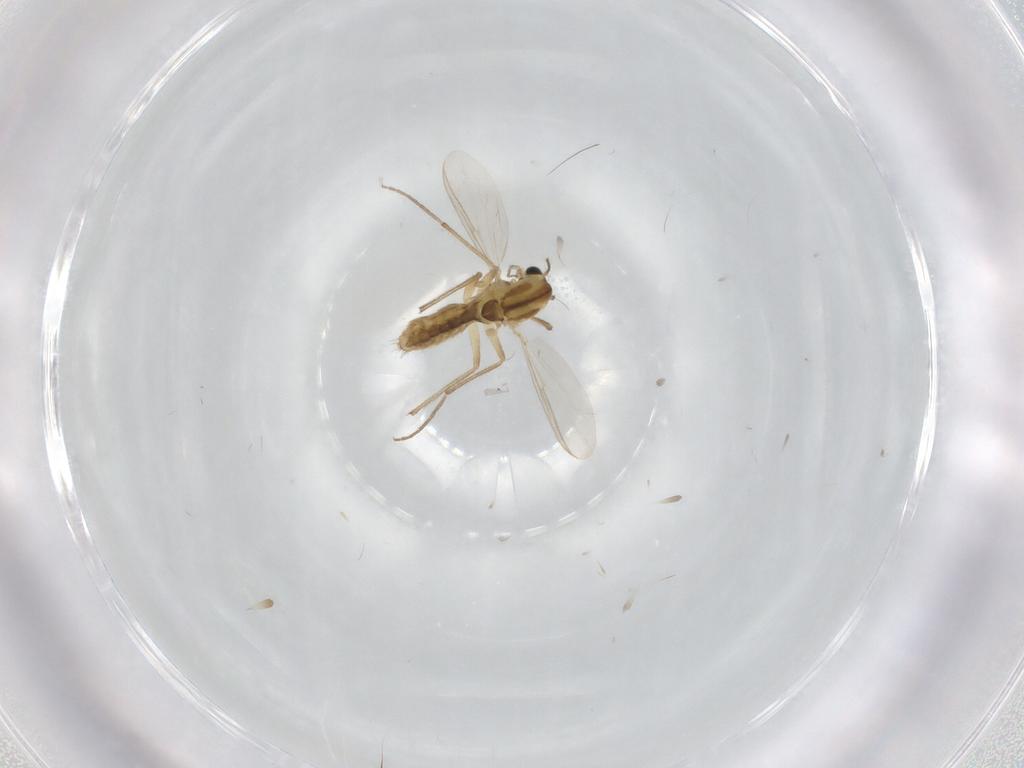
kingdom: Animalia
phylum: Arthropoda
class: Insecta
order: Diptera
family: Chironomidae
